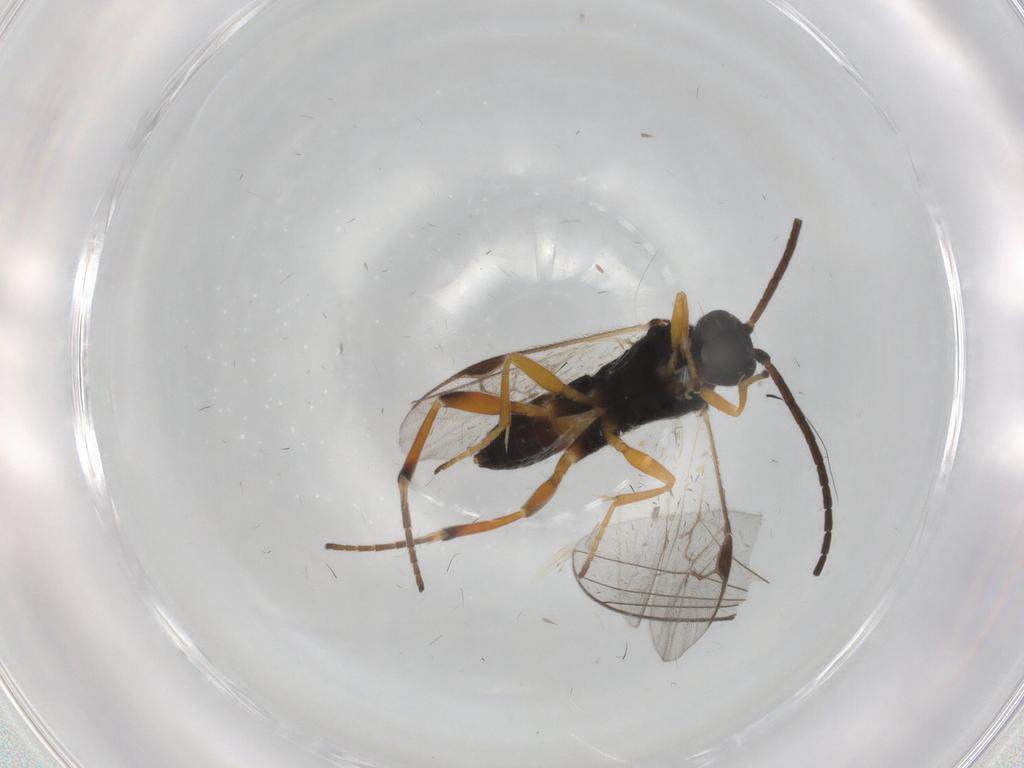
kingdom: Animalia
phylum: Arthropoda
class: Insecta
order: Hymenoptera
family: Braconidae
